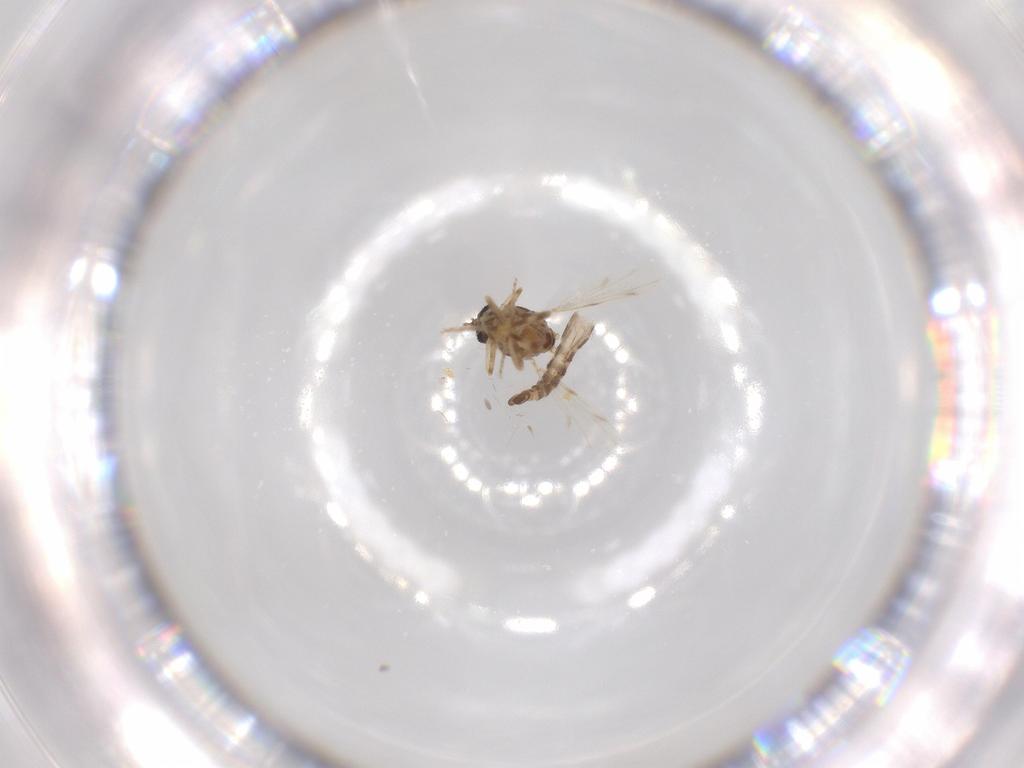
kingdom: Animalia
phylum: Arthropoda
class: Insecta
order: Diptera
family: Ceratopogonidae
